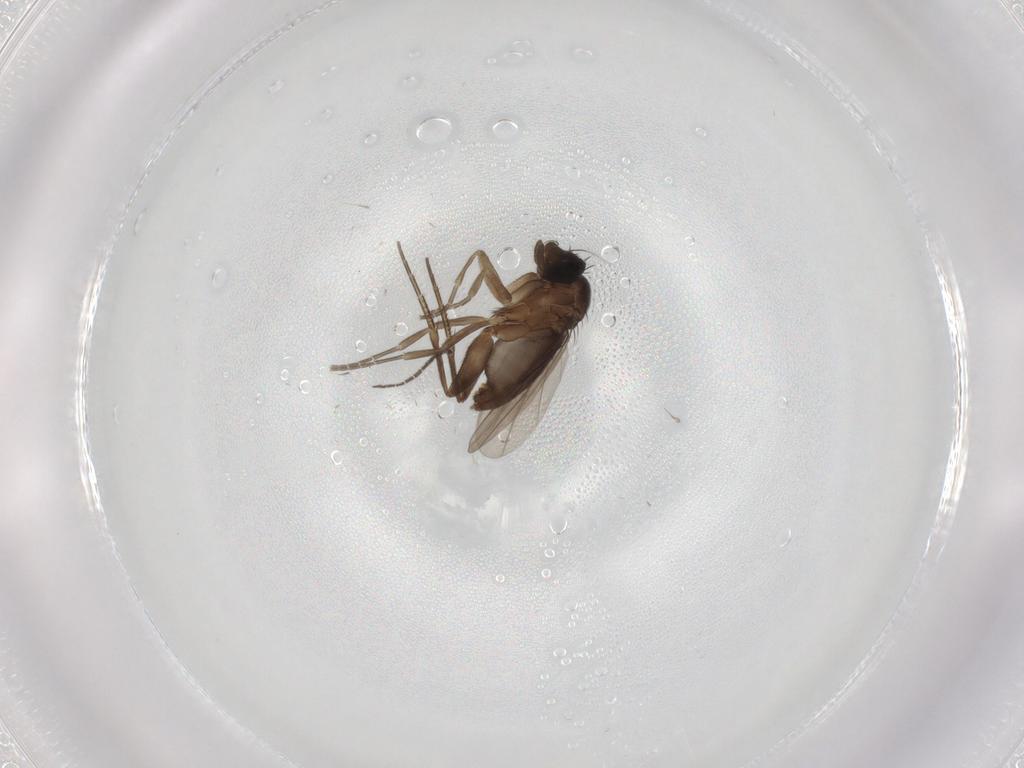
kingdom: Animalia
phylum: Arthropoda
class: Insecta
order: Diptera
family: Phoridae
